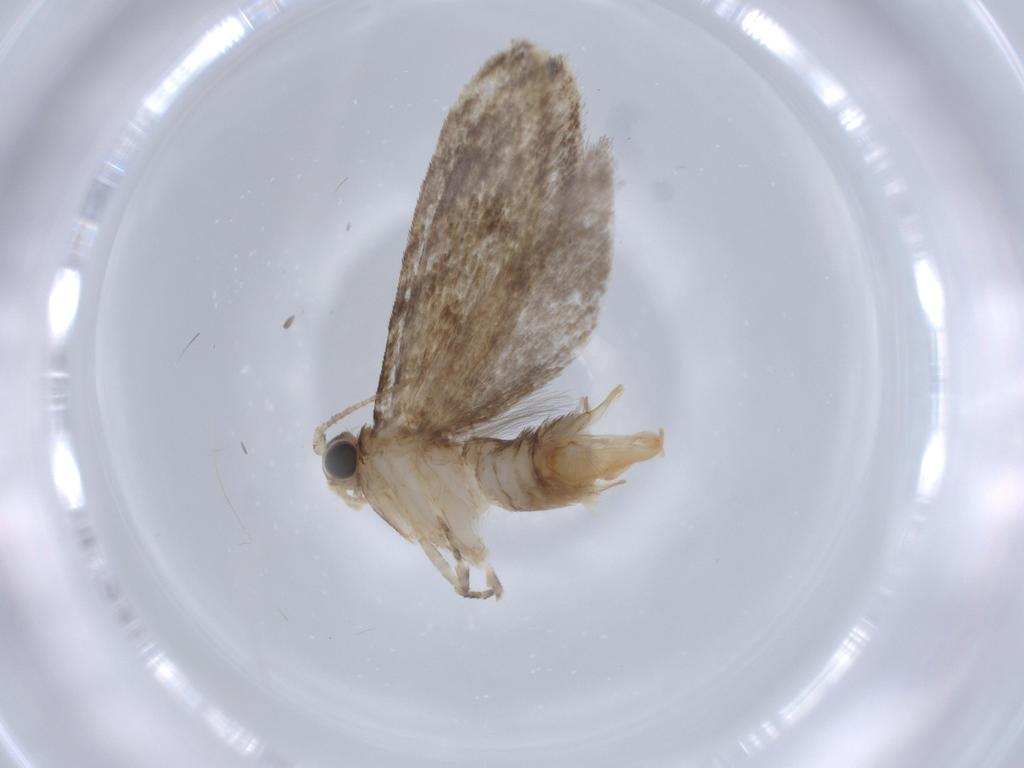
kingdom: Animalia
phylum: Arthropoda
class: Insecta
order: Lepidoptera
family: Tineidae
